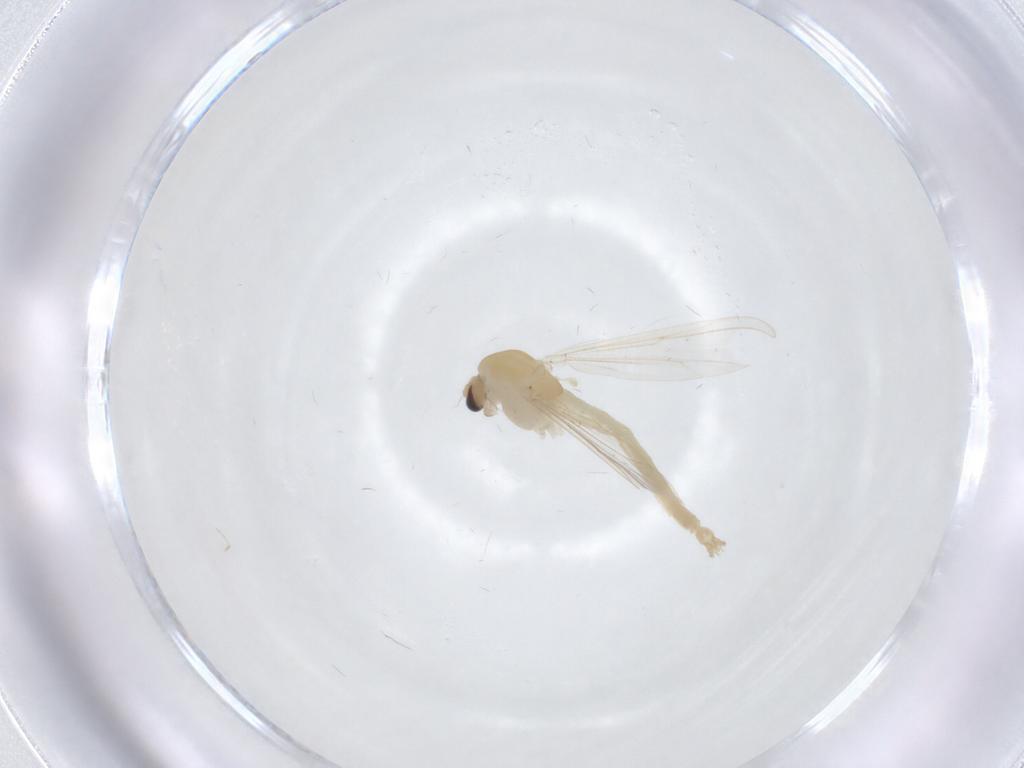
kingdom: Animalia
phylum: Arthropoda
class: Insecta
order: Diptera
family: Chironomidae
